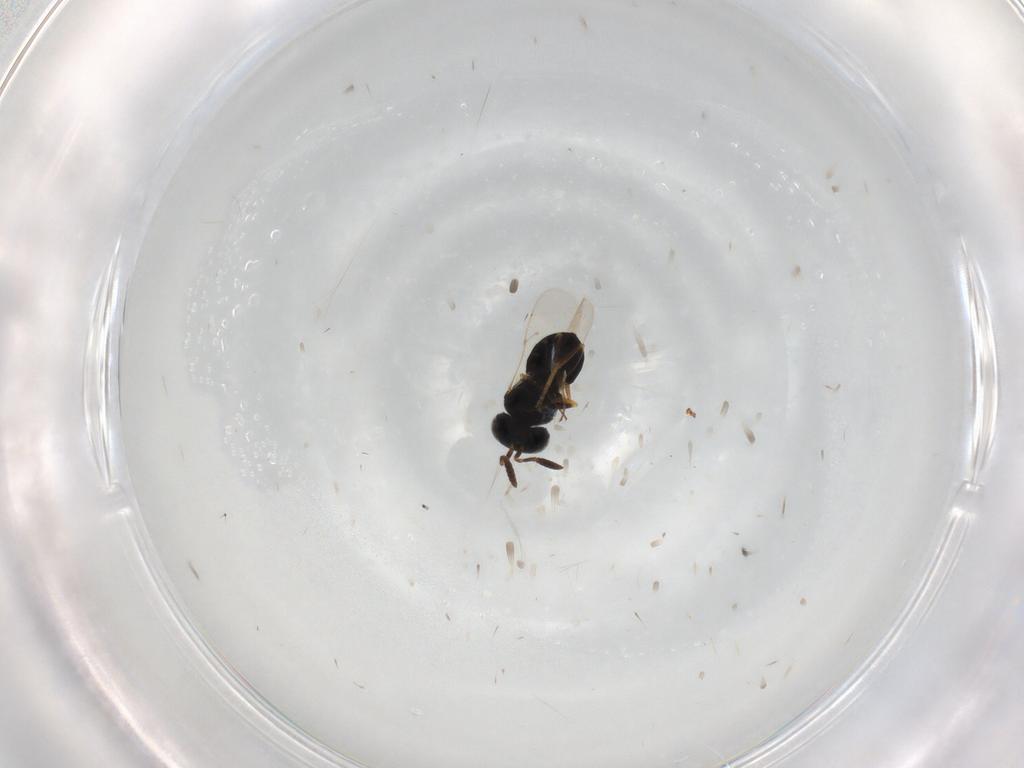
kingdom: Animalia
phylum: Arthropoda
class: Insecta
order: Hymenoptera
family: Scelionidae
